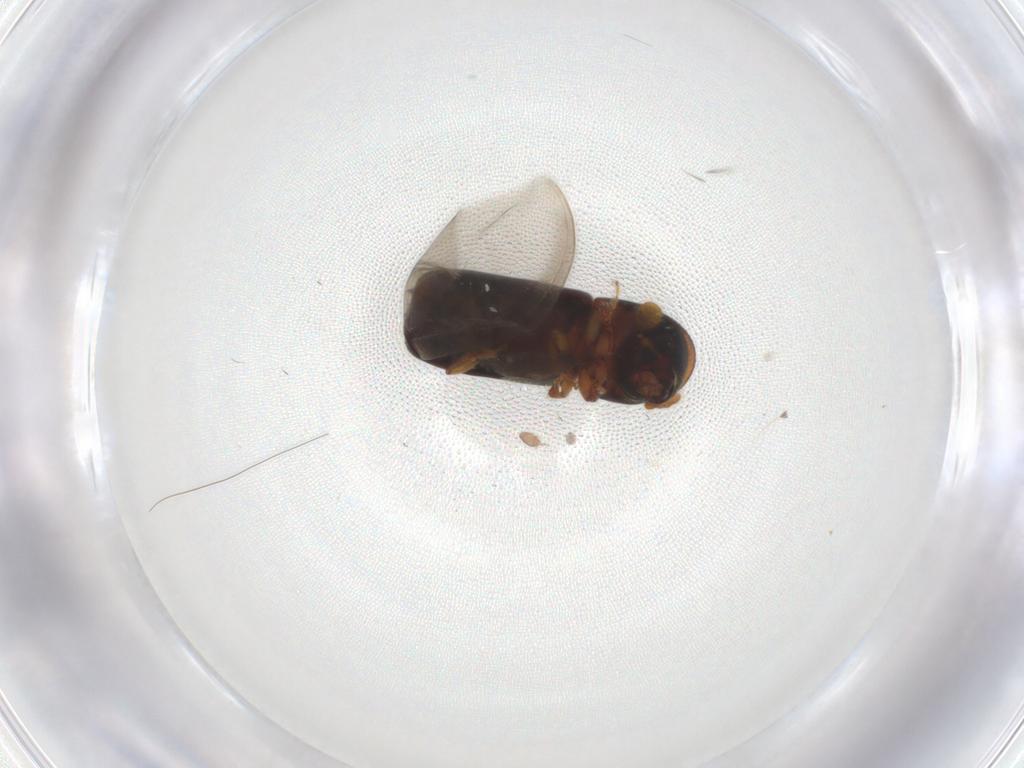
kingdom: Animalia
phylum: Arthropoda
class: Insecta
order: Coleoptera
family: Curculionidae
